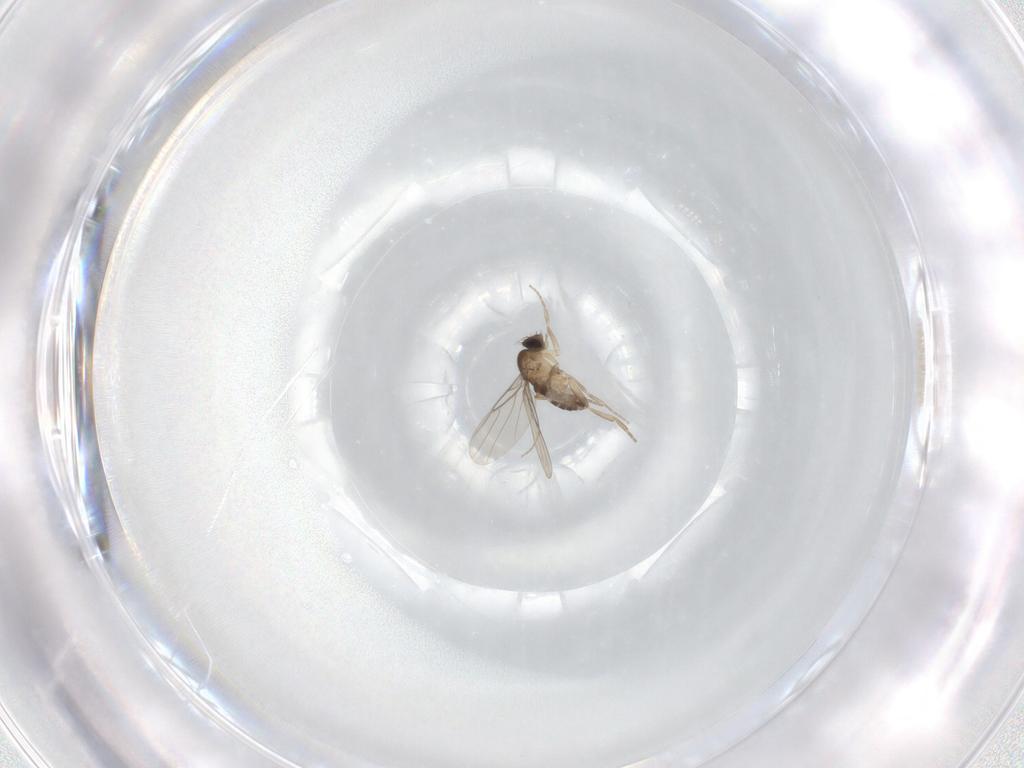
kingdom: Animalia
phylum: Arthropoda
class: Insecta
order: Diptera
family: Phoridae
